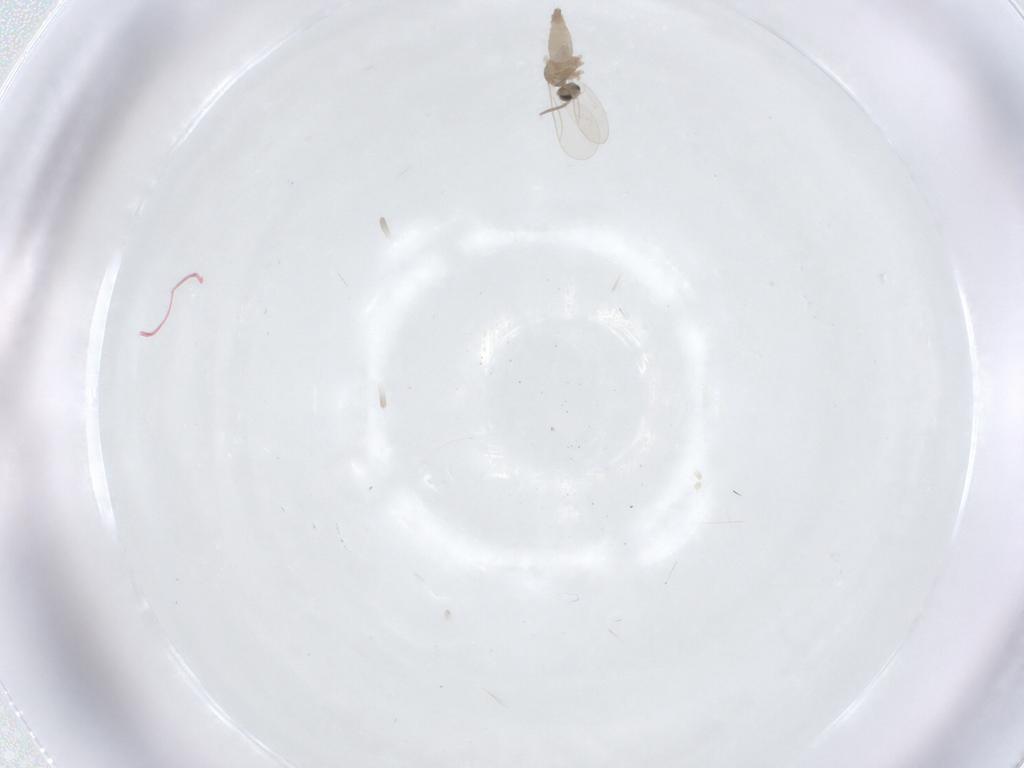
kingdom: Animalia
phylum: Arthropoda
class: Insecta
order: Diptera
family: Cecidomyiidae
